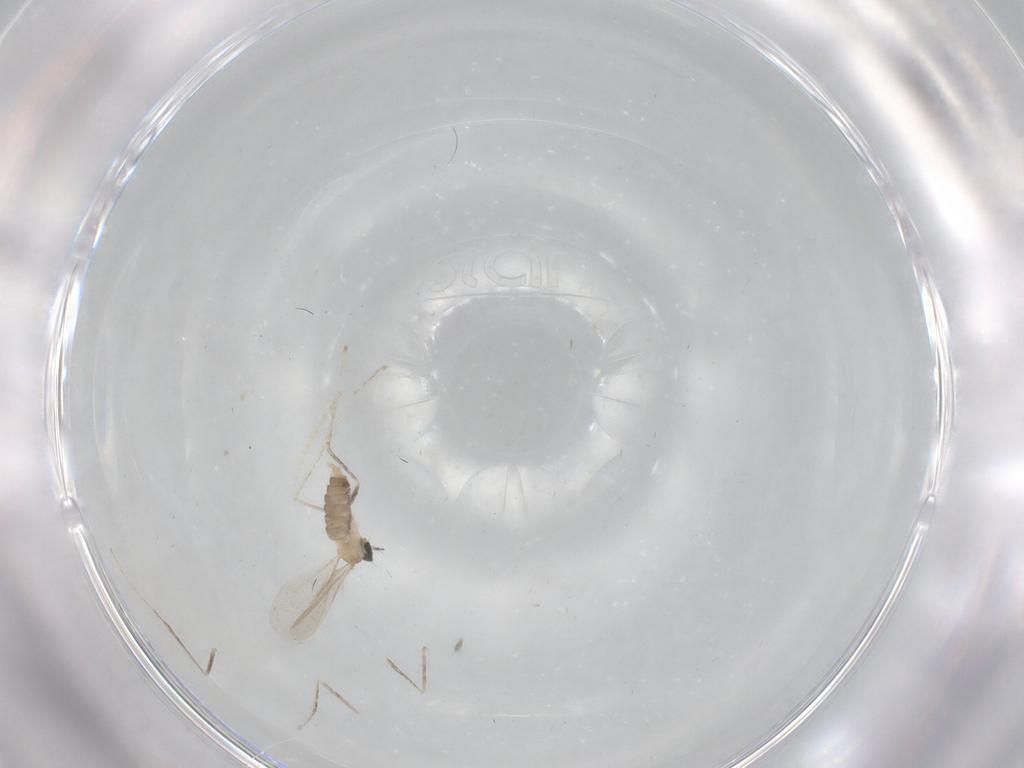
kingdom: Animalia
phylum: Arthropoda
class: Insecta
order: Diptera
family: Cecidomyiidae
